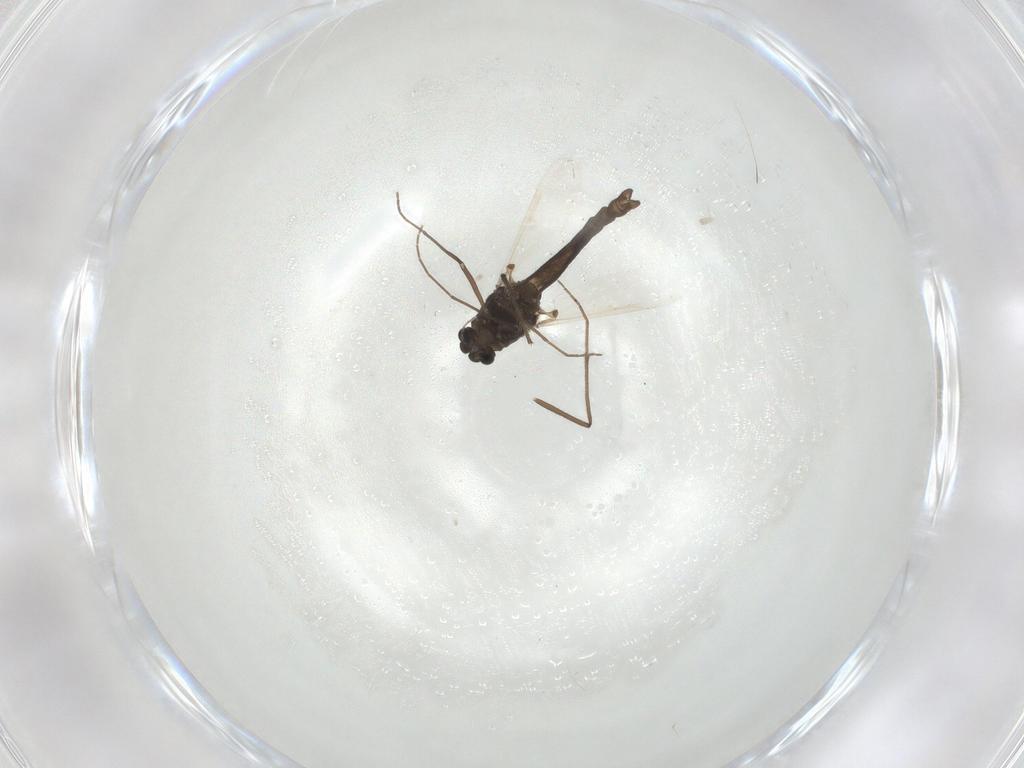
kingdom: Animalia
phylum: Arthropoda
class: Insecta
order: Diptera
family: Chironomidae
